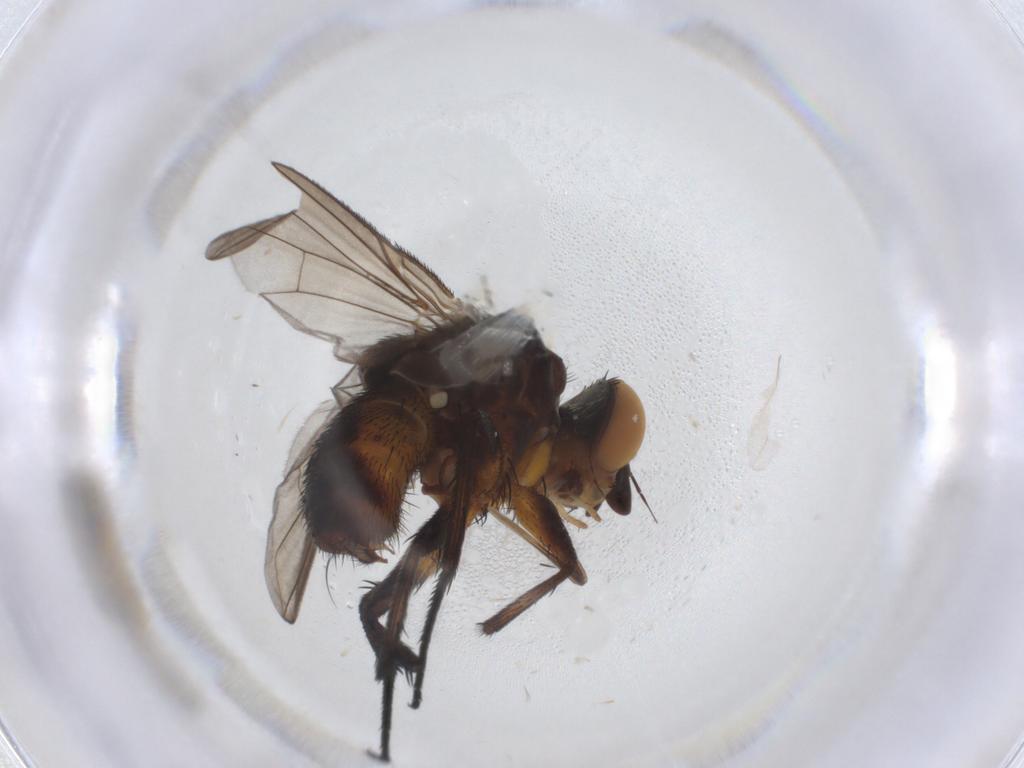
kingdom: Animalia
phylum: Arthropoda
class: Insecta
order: Diptera
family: Tachinidae
